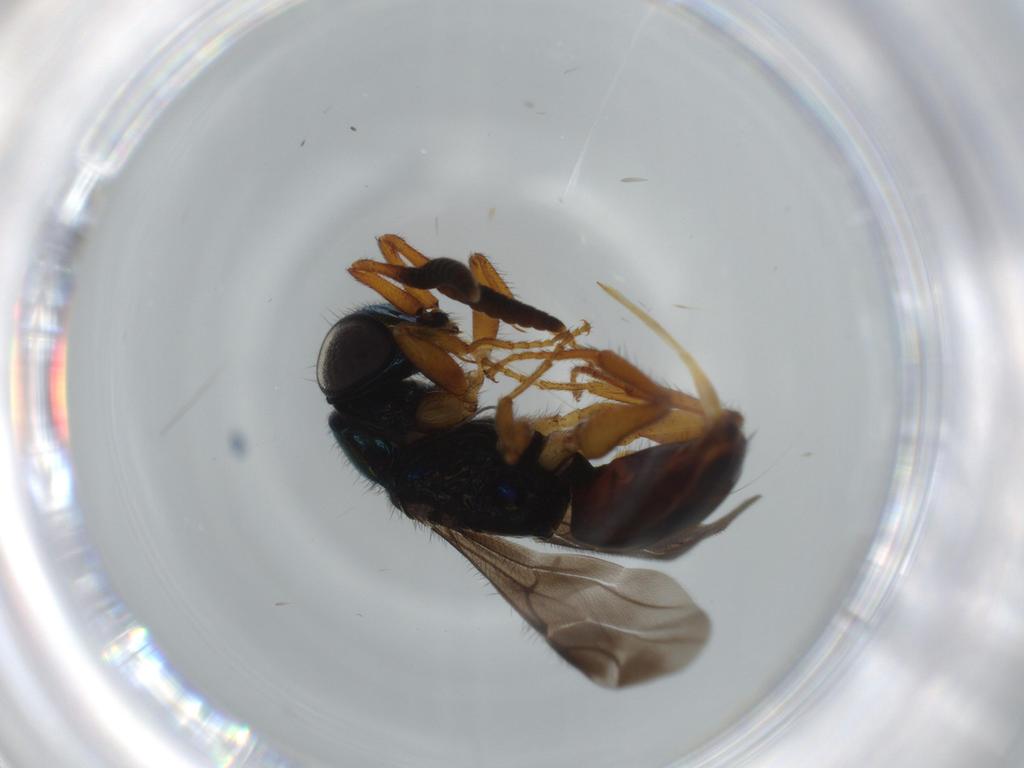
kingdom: Animalia
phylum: Arthropoda
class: Insecta
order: Hymenoptera
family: Chrysididae
